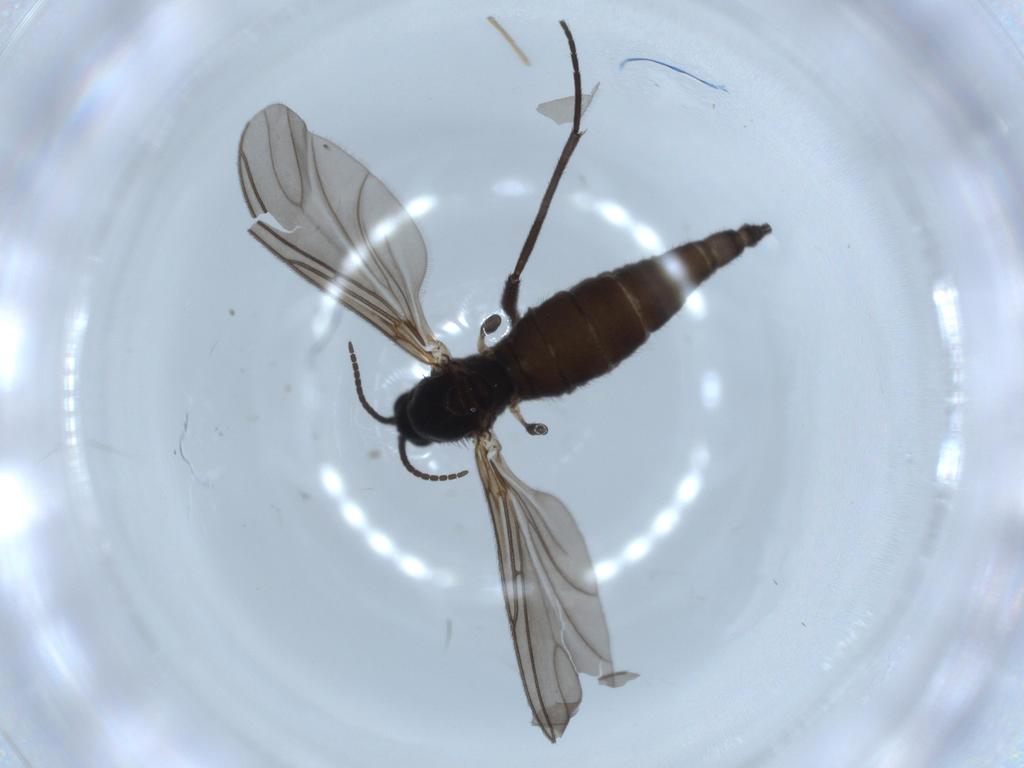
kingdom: Animalia
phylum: Arthropoda
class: Insecta
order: Diptera
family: Sciaridae
